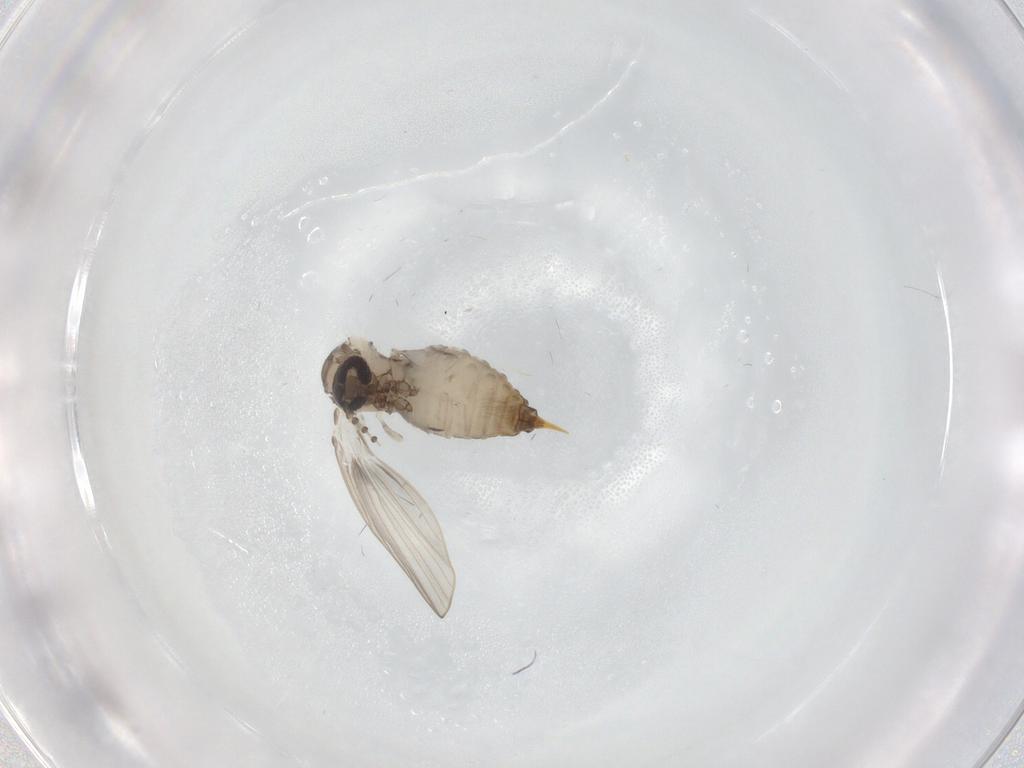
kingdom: Animalia
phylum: Arthropoda
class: Insecta
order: Diptera
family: Psychodidae
